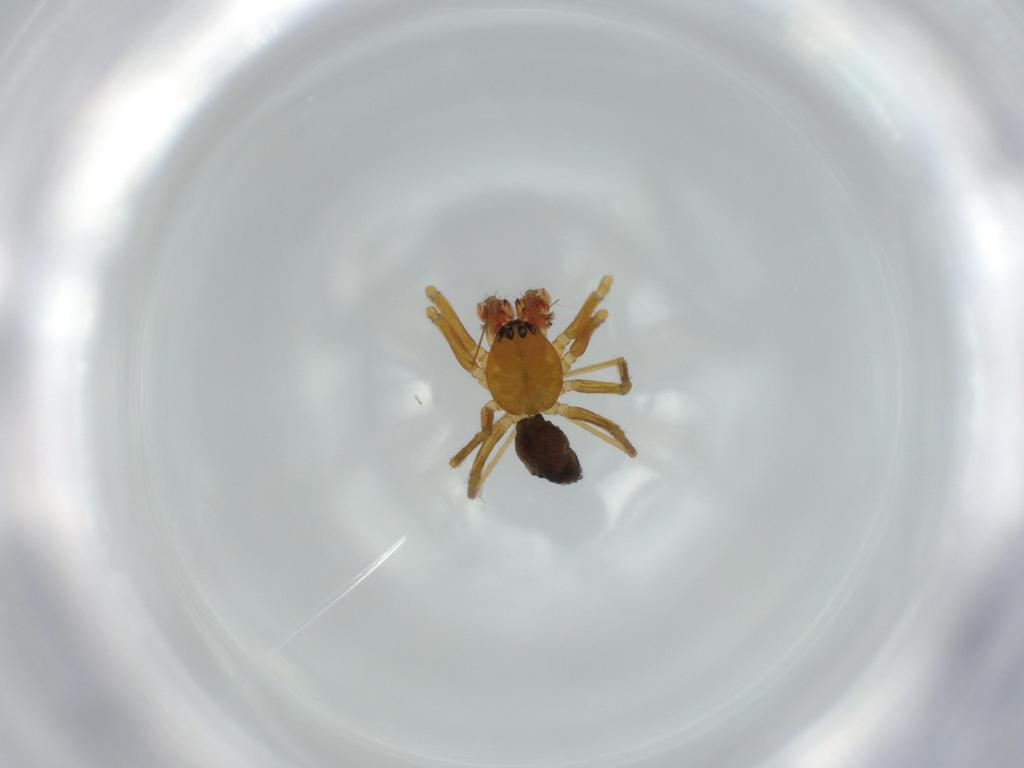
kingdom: Animalia
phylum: Arthropoda
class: Arachnida
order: Araneae
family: Linyphiidae
